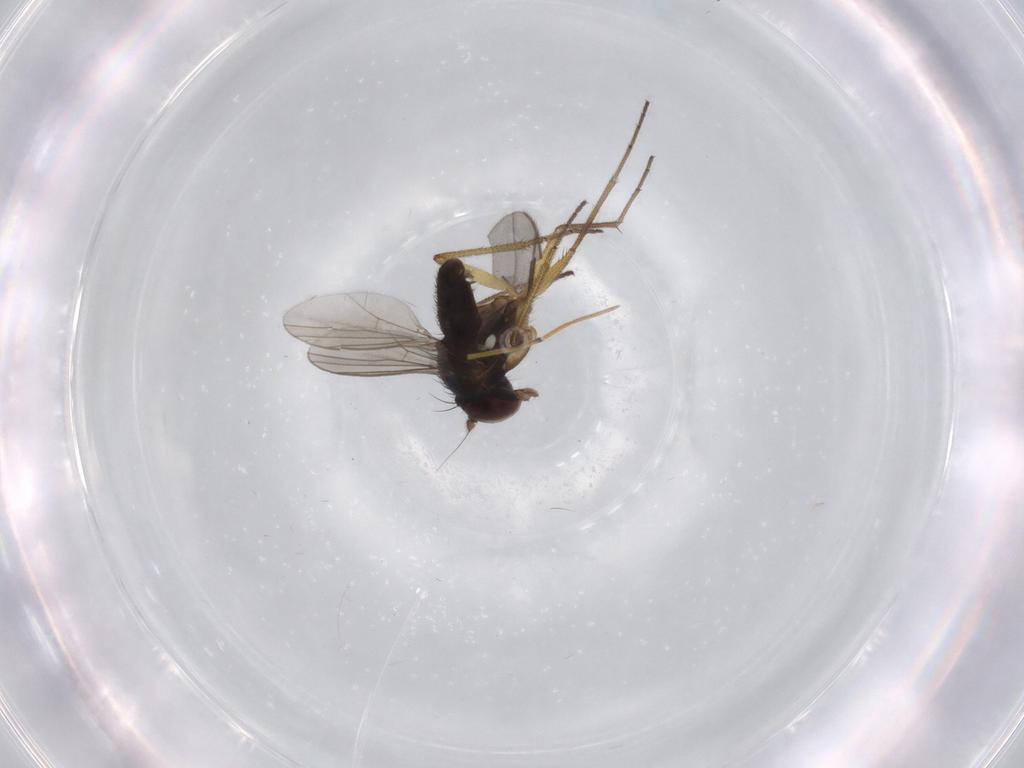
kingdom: Animalia
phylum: Arthropoda
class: Insecta
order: Diptera
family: Dolichopodidae
